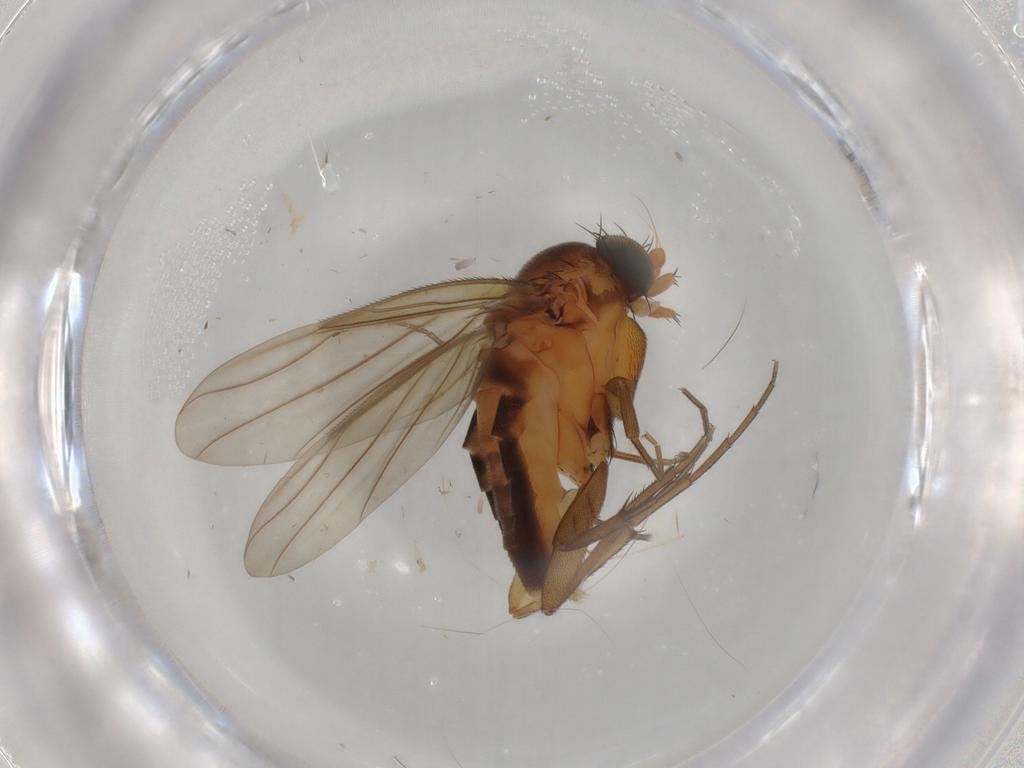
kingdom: Animalia
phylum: Arthropoda
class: Insecta
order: Diptera
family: Phoridae
